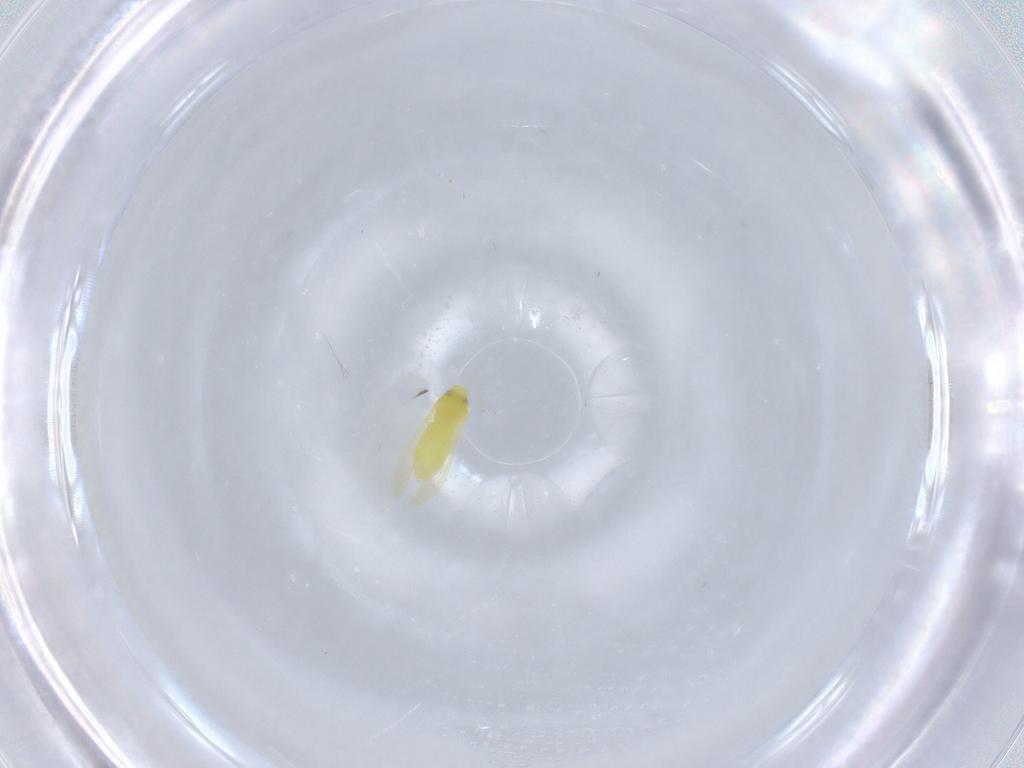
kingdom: Animalia
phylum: Arthropoda
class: Insecta
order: Hemiptera
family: Aleyrodidae
